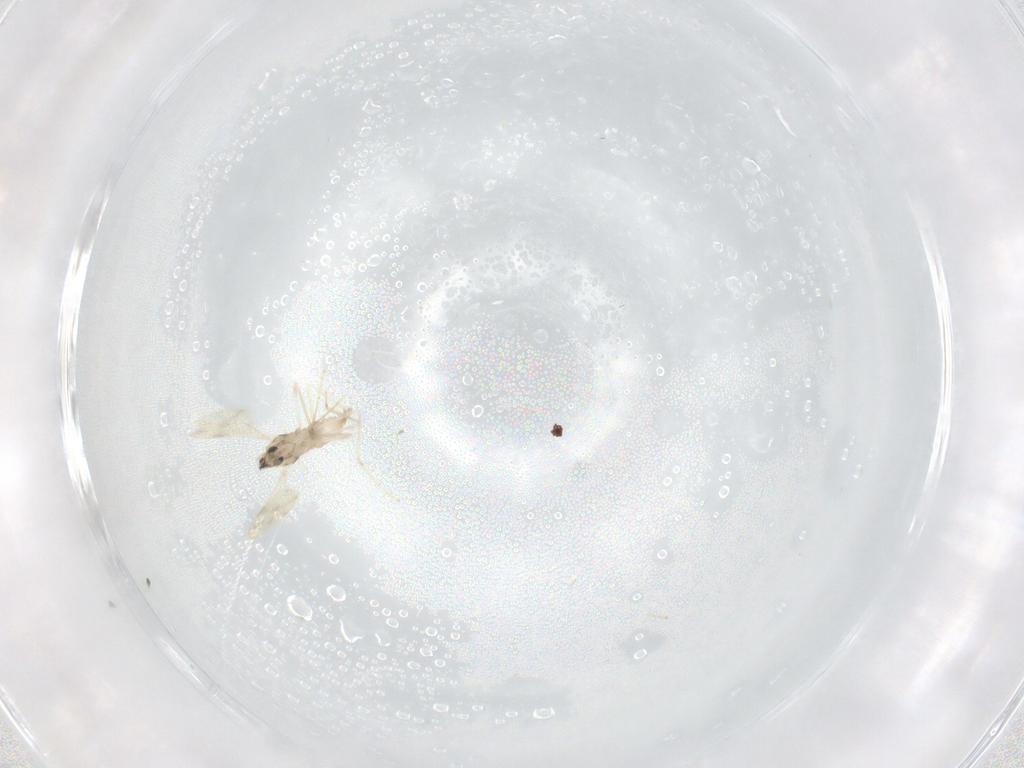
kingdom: Animalia
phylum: Arthropoda
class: Insecta
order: Diptera
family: Cecidomyiidae
